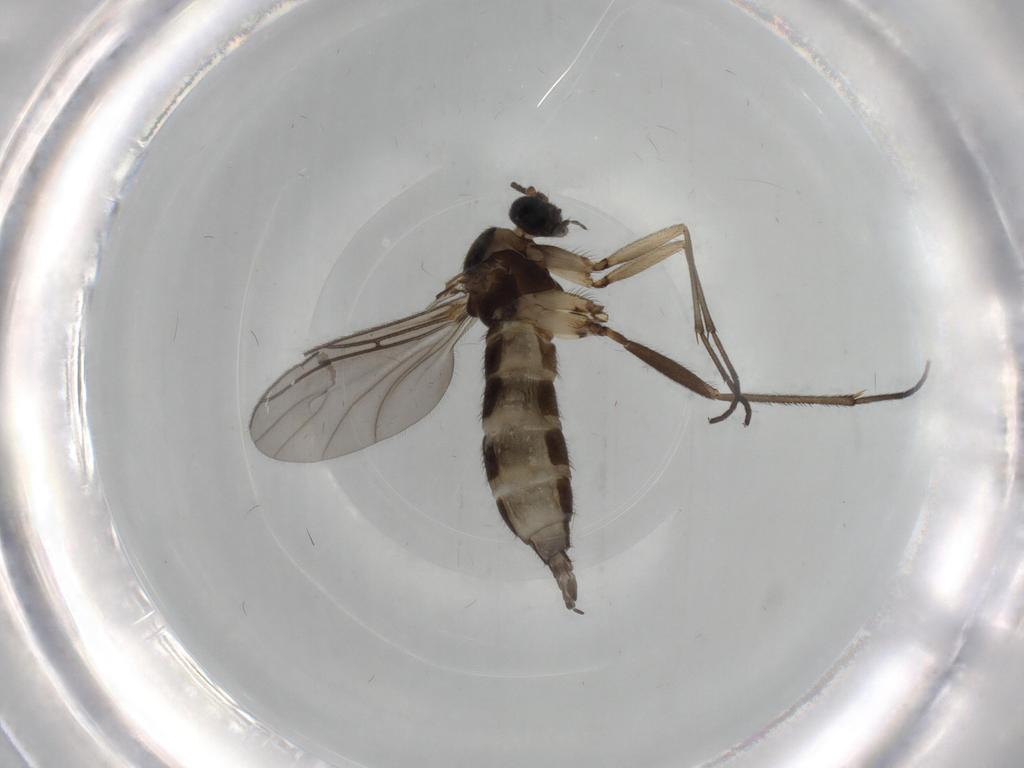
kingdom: Animalia
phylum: Arthropoda
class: Insecta
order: Diptera
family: Sciaridae
